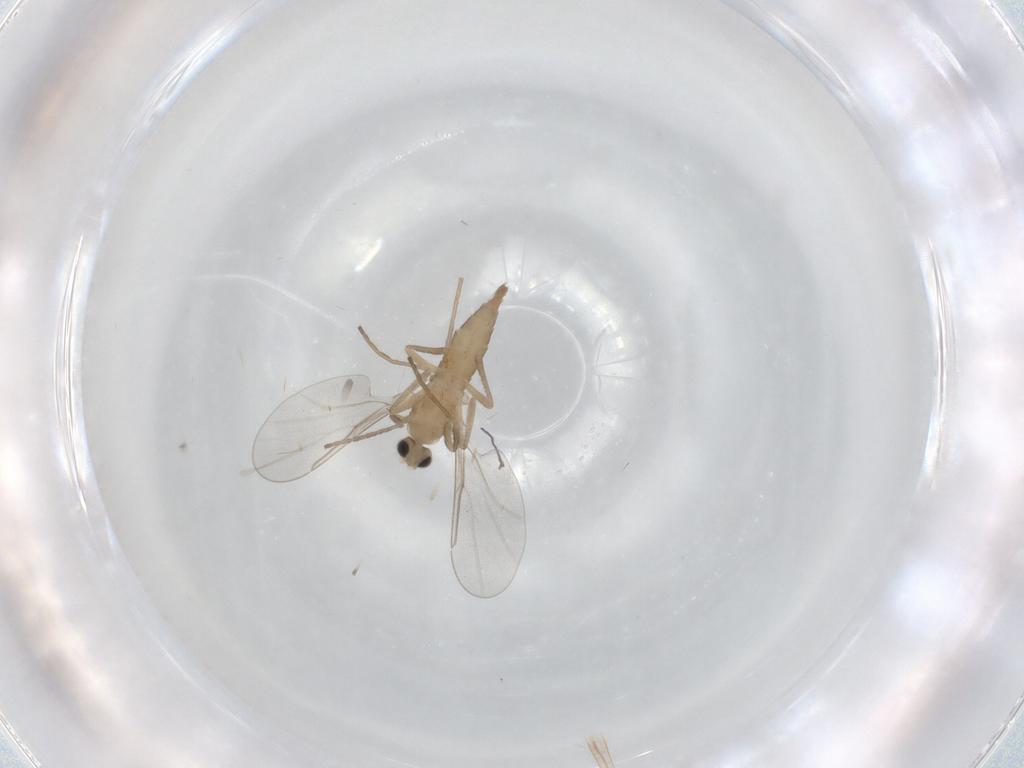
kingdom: Animalia
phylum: Arthropoda
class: Insecta
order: Diptera
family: Cecidomyiidae
